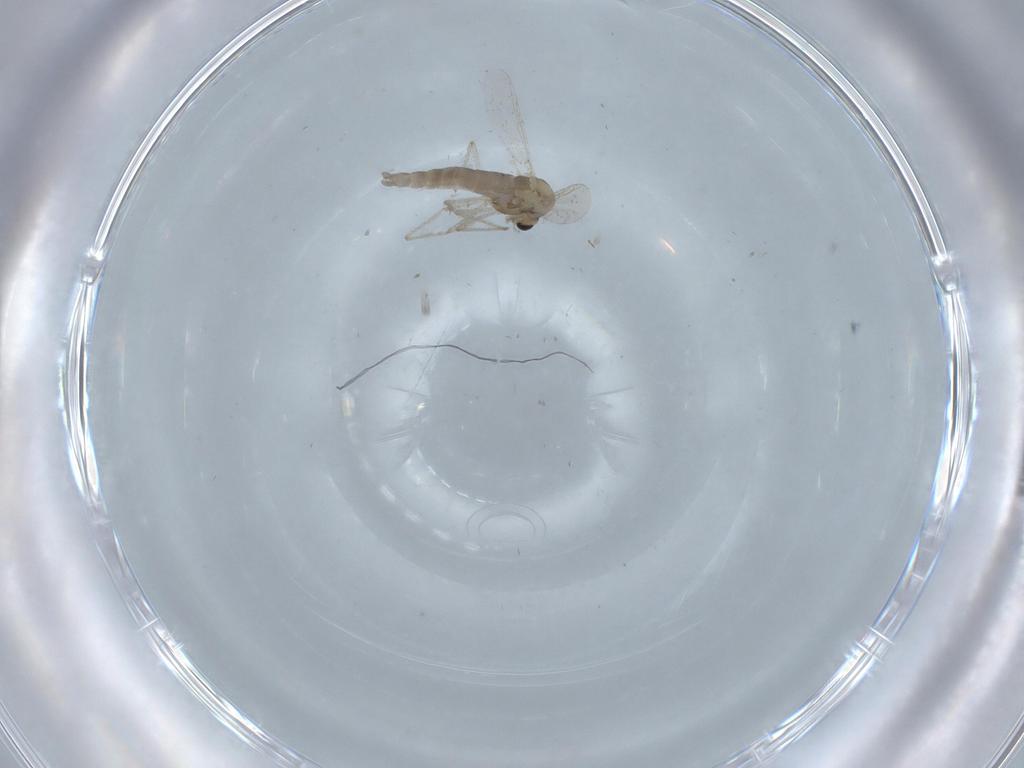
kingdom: Animalia
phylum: Arthropoda
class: Insecta
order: Diptera
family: Chironomidae
